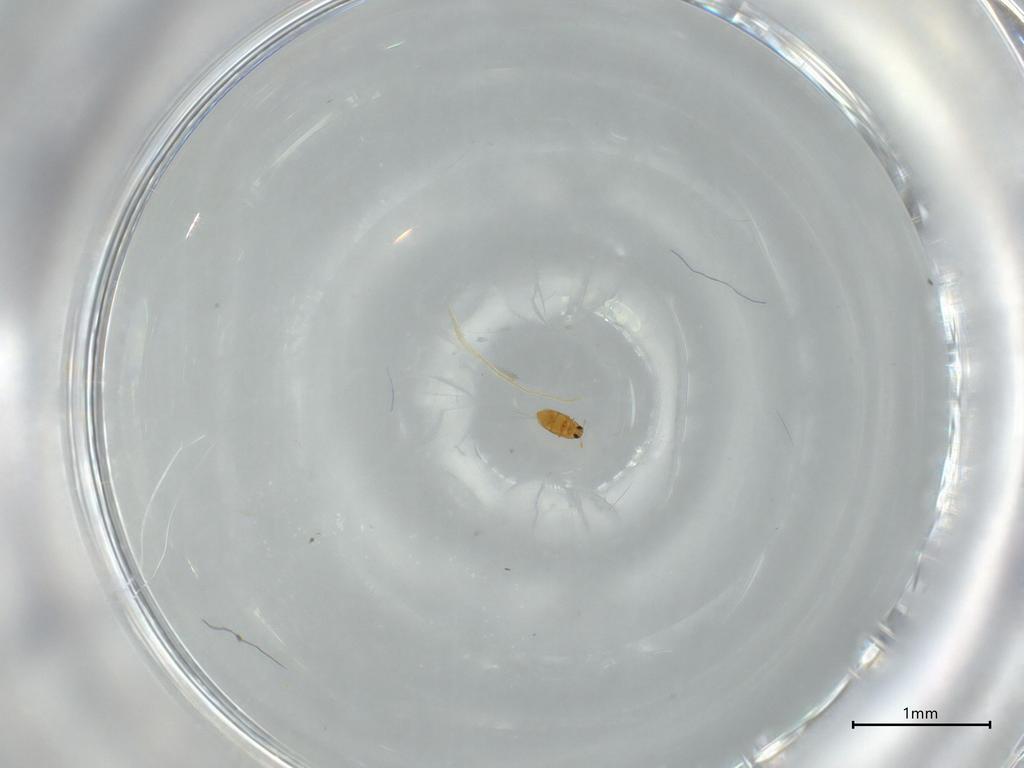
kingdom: Animalia
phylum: Arthropoda
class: Insecta
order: Coleoptera
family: Ptiliidae
